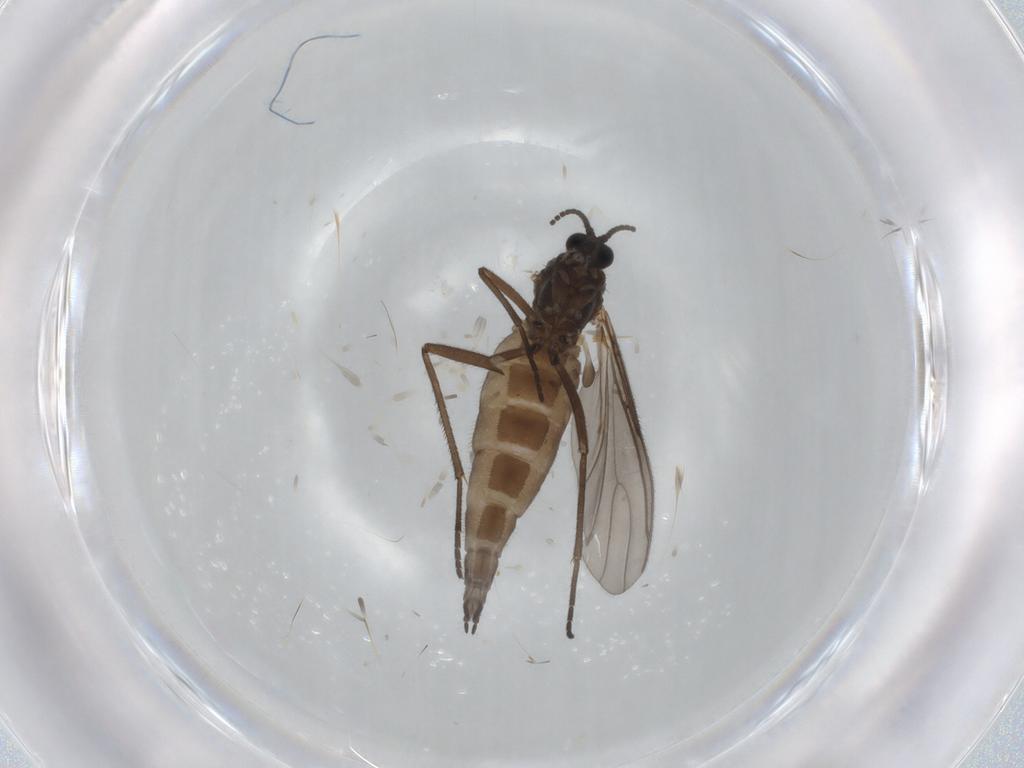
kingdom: Animalia
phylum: Arthropoda
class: Insecta
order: Diptera
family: Sciaridae
